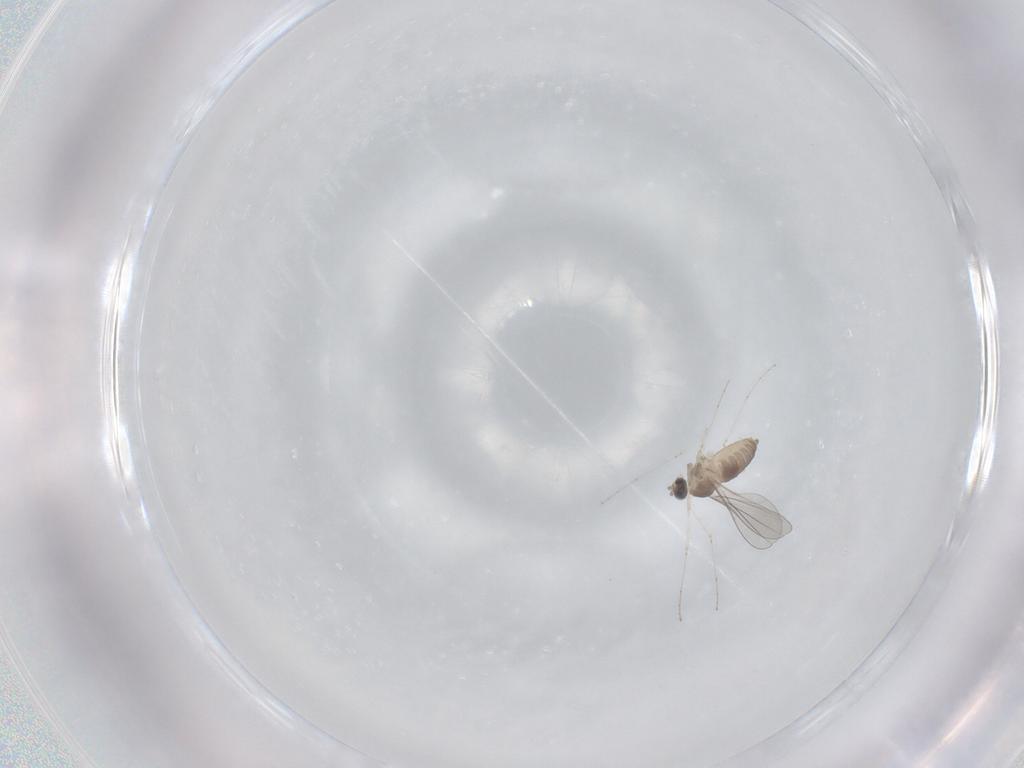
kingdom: Animalia
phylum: Arthropoda
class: Insecta
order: Diptera
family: Cecidomyiidae
